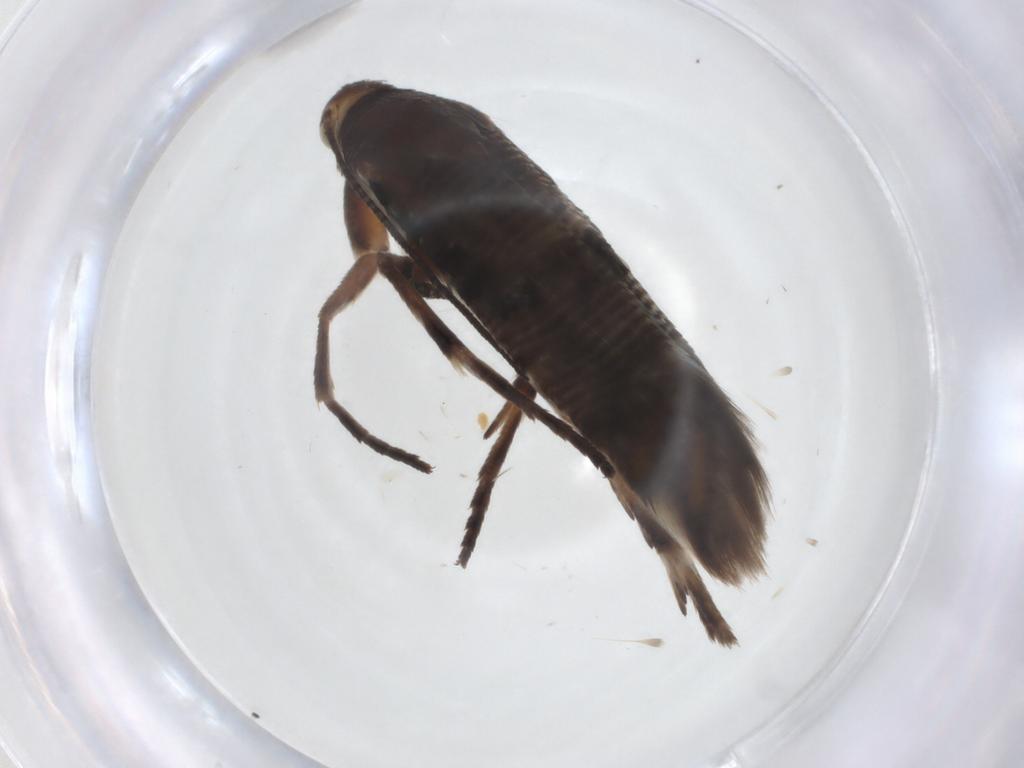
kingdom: Animalia
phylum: Arthropoda
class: Insecta
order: Lepidoptera
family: Crambidae
